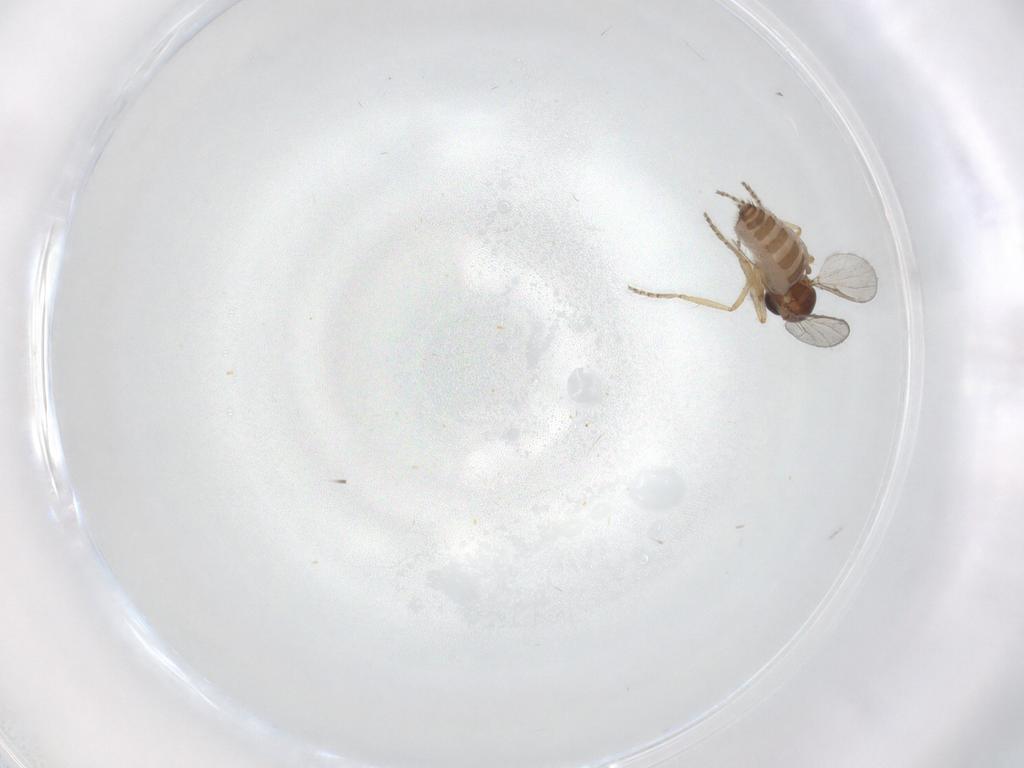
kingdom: Animalia
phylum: Arthropoda
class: Insecta
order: Diptera
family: Ceratopogonidae
